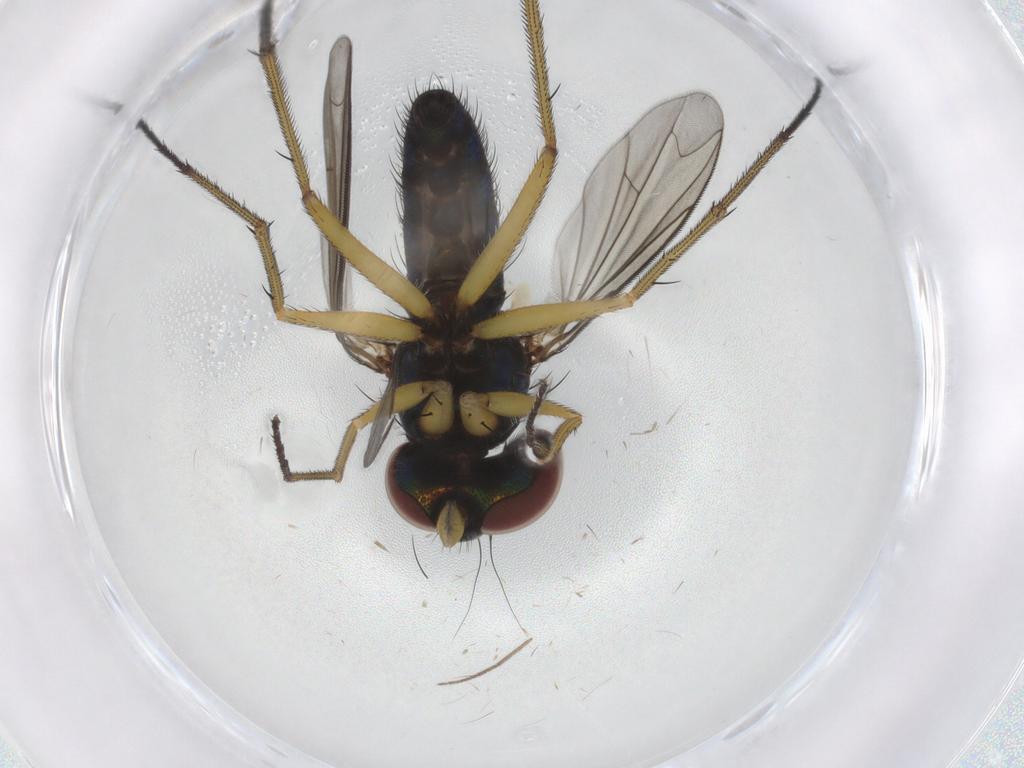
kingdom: Animalia
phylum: Arthropoda
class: Insecta
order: Diptera
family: Dolichopodidae
